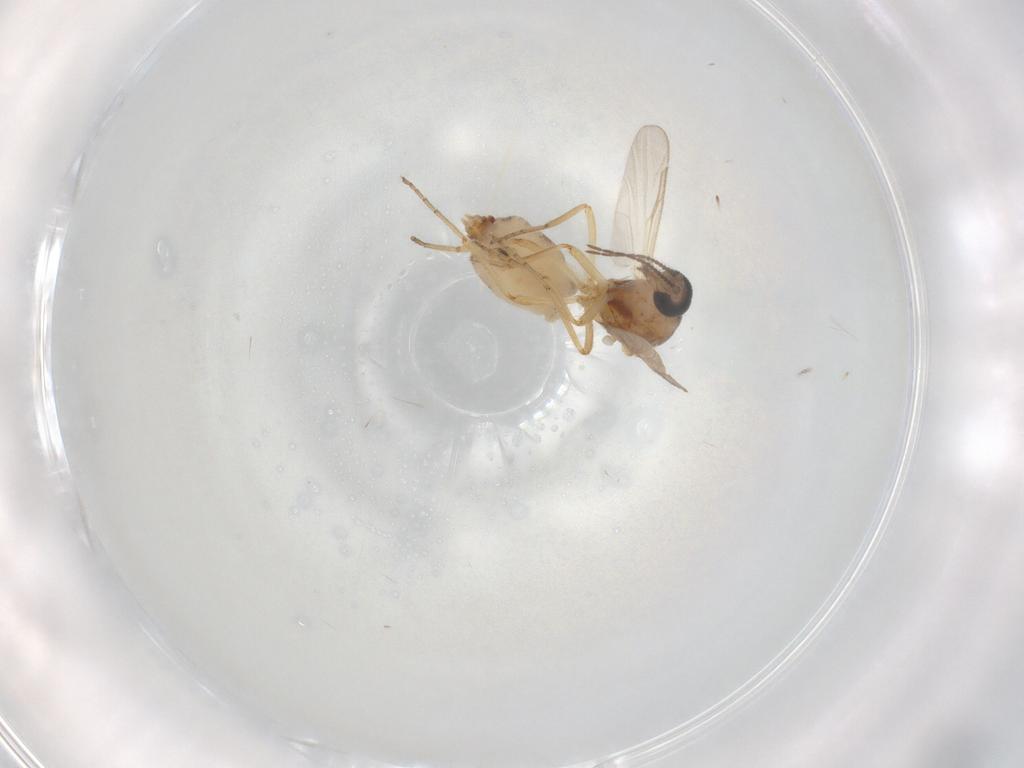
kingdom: Animalia
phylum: Arthropoda
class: Insecta
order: Diptera
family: Ceratopogonidae
